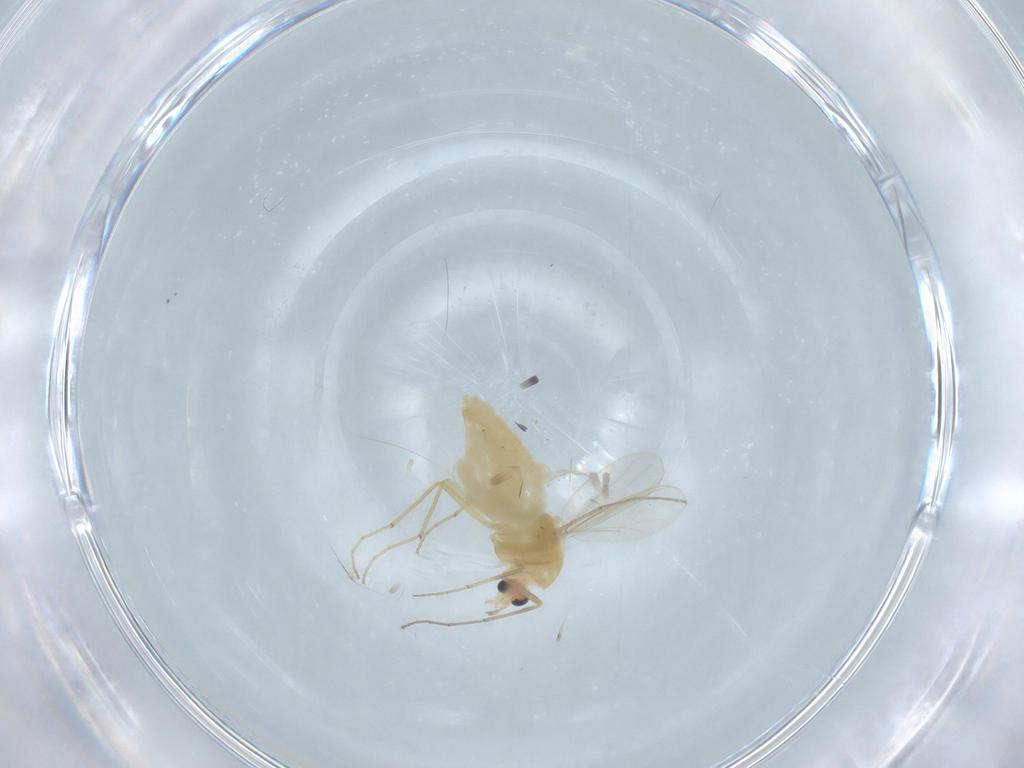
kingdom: Animalia
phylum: Arthropoda
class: Insecta
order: Diptera
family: Chironomidae
